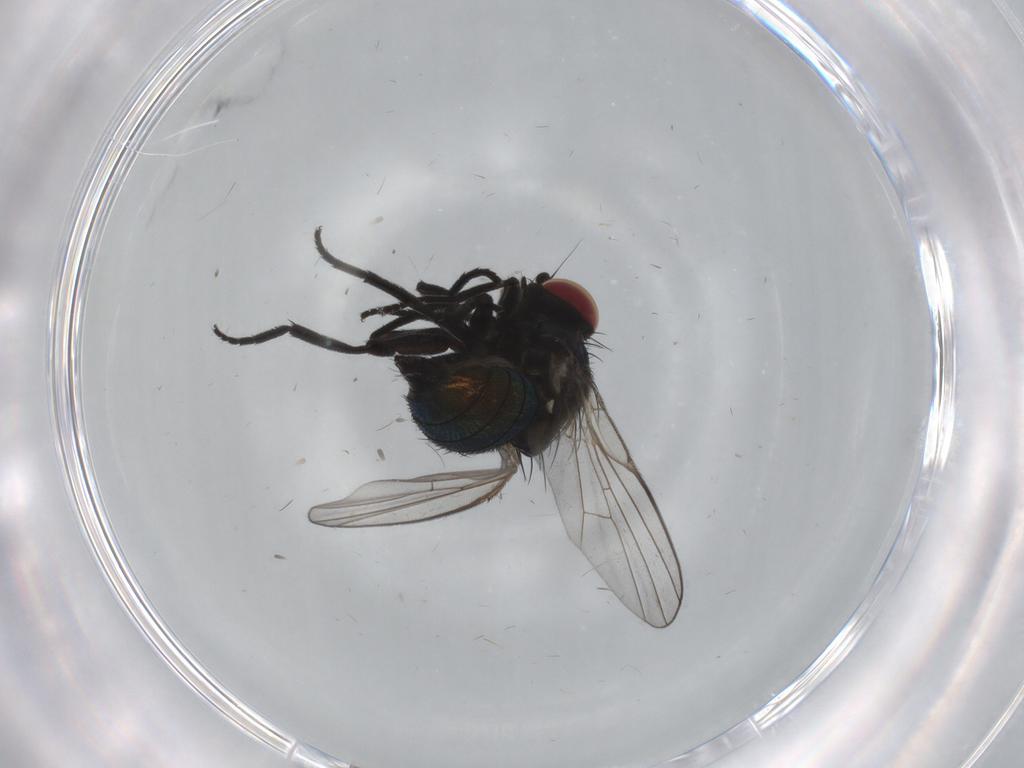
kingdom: Animalia
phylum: Arthropoda
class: Insecta
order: Diptera
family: Agromyzidae
